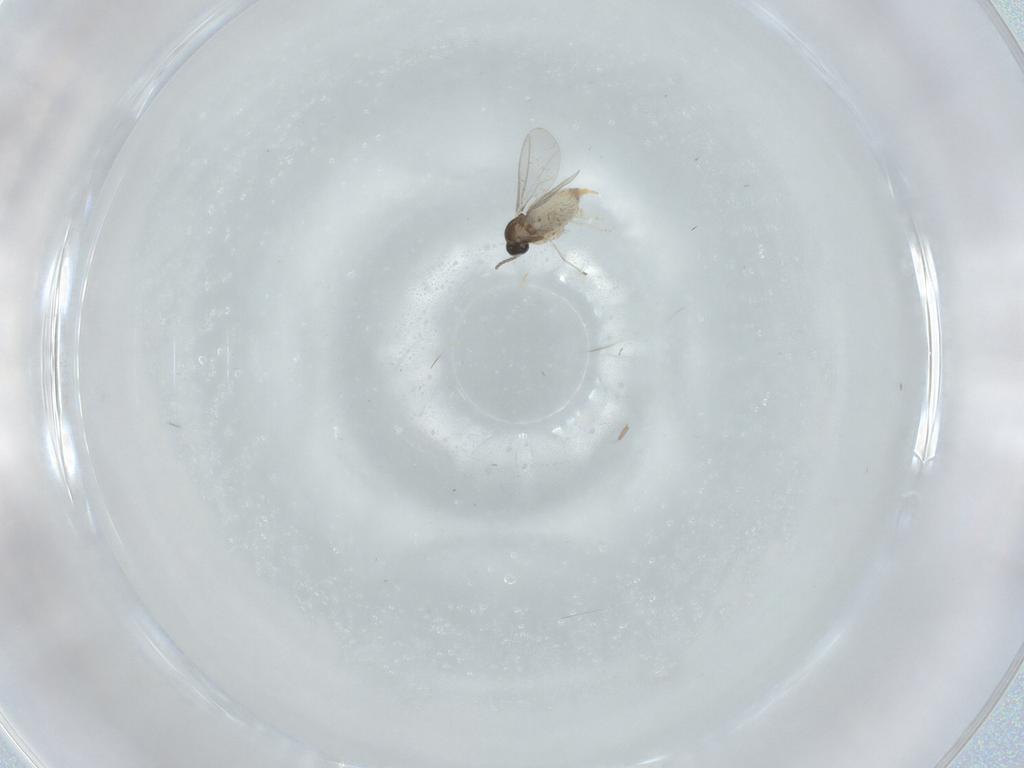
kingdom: Animalia
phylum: Arthropoda
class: Insecta
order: Diptera
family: Cecidomyiidae
